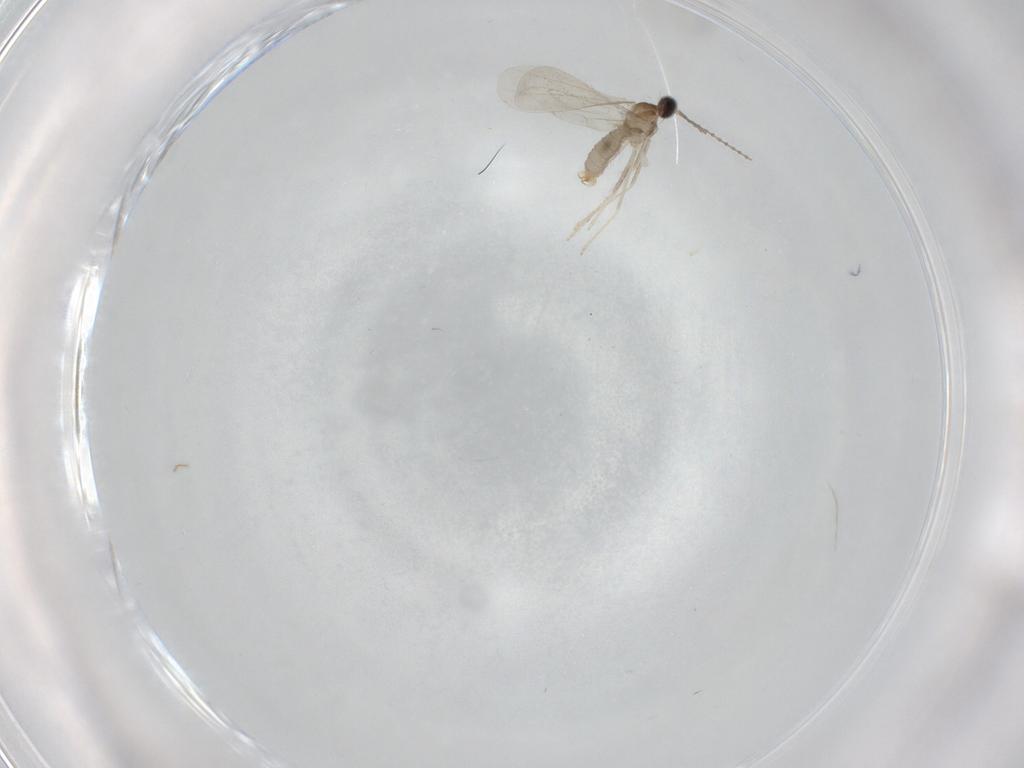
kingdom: Animalia
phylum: Arthropoda
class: Insecta
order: Diptera
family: Cecidomyiidae
